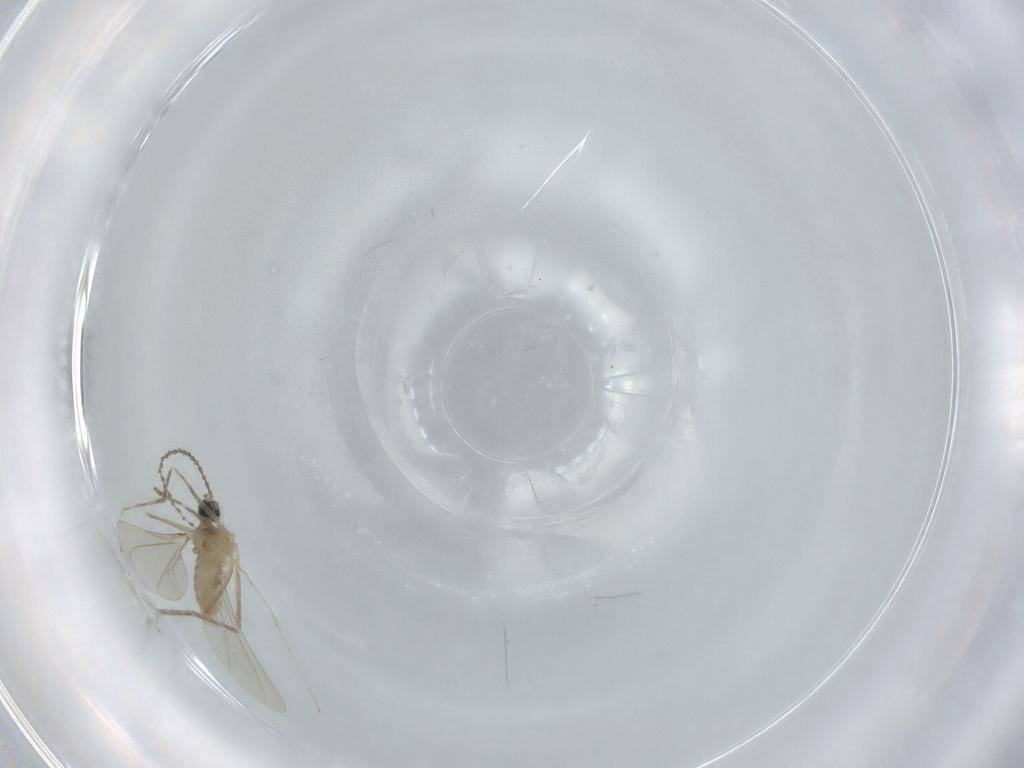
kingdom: Animalia
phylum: Arthropoda
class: Insecta
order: Diptera
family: Cecidomyiidae
